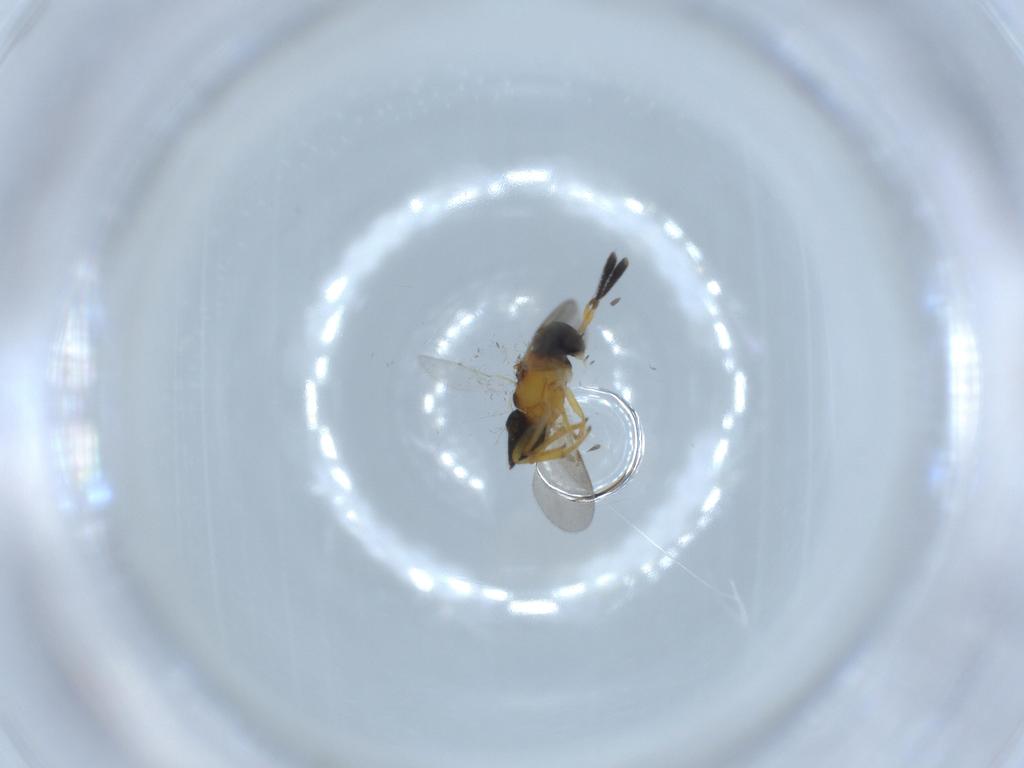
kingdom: Animalia
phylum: Arthropoda
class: Insecta
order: Hymenoptera
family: Encyrtidae
